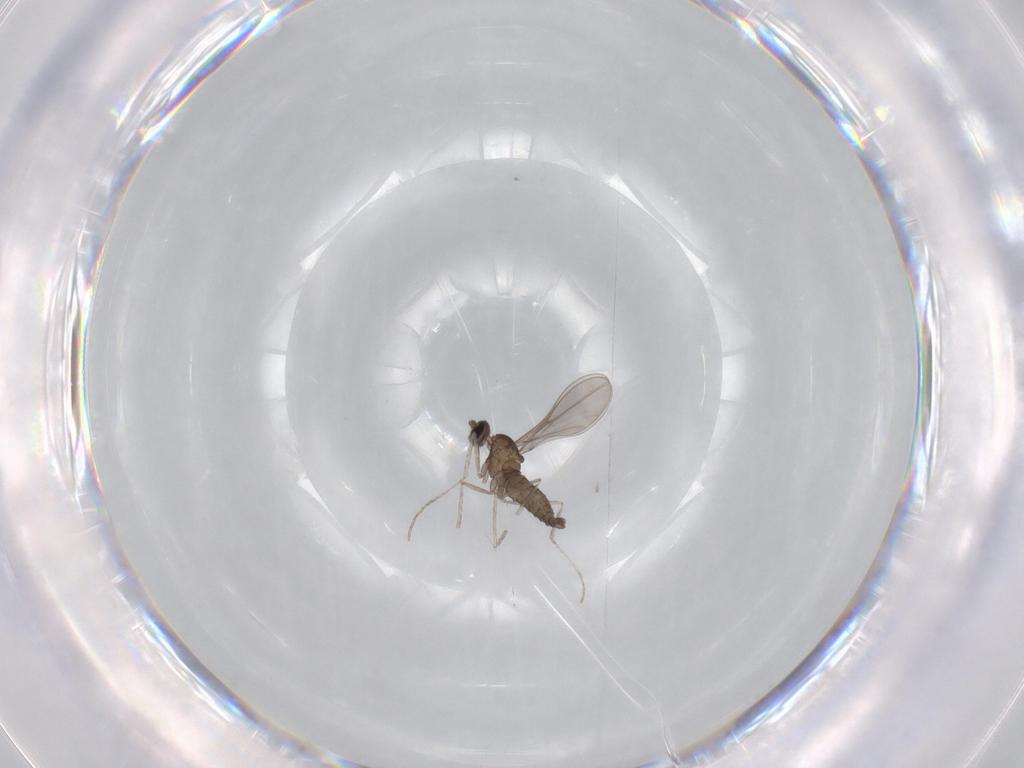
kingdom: Animalia
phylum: Arthropoda
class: Insecta
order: Diptera
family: Cecidomyiidae
